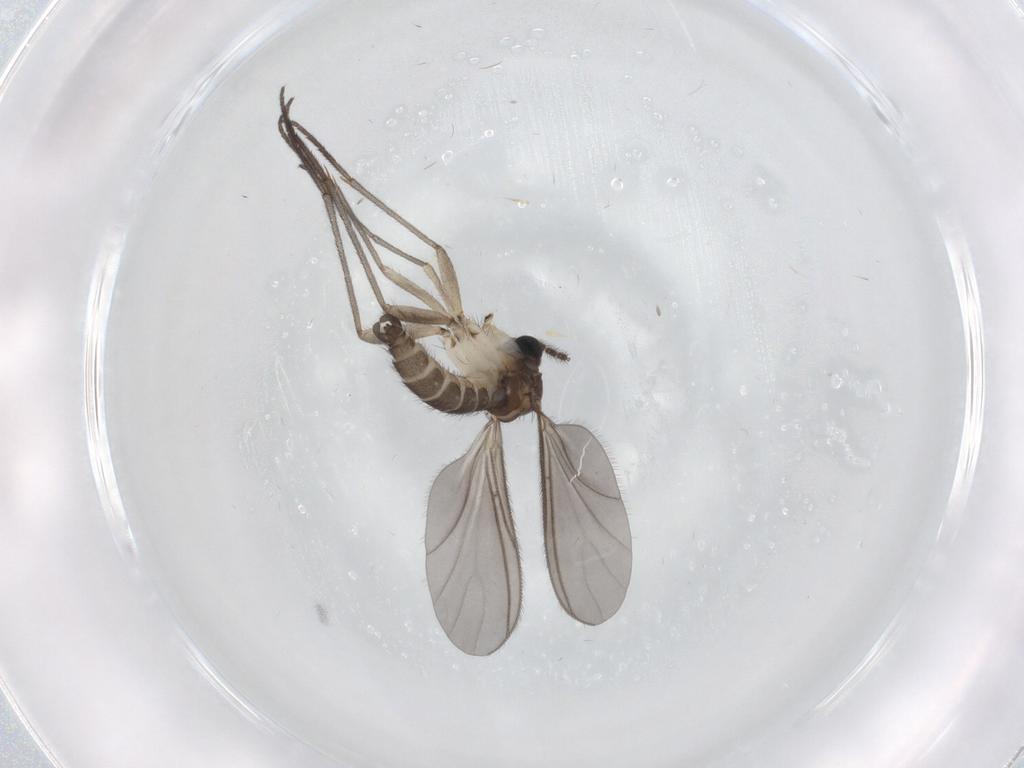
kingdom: Animalia
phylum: Arthropoda
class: Insecta
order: Diptera
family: Sciaridae
